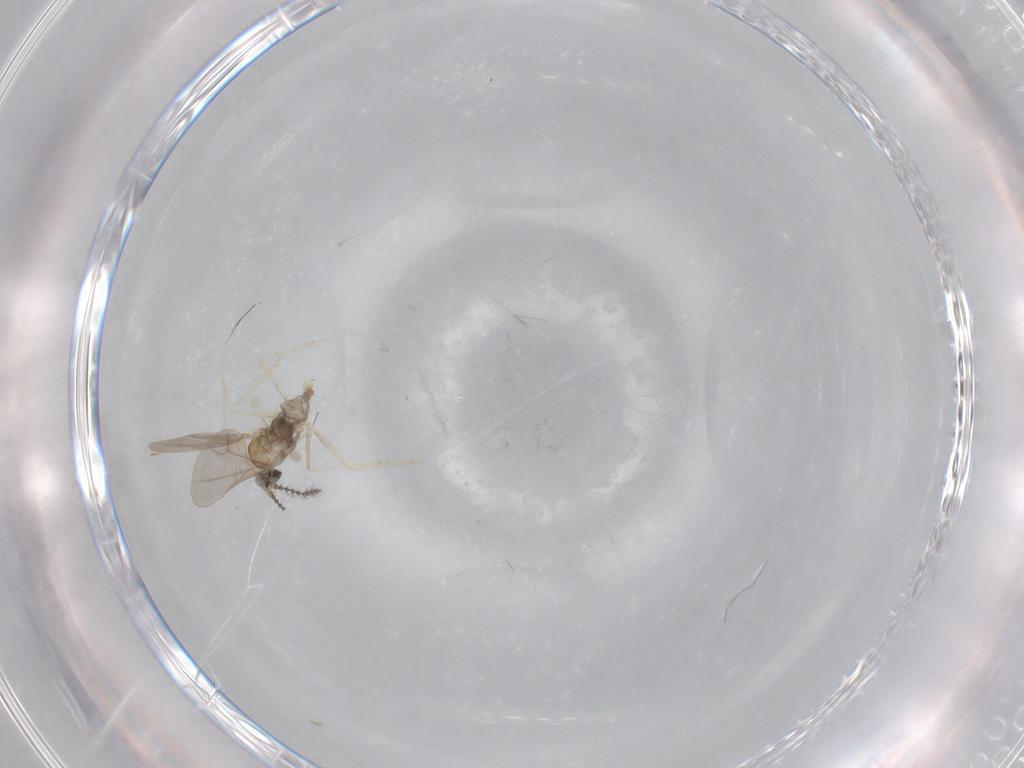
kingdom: Animalia
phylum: Arthropoda
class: Insecta
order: Diptera
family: Cecidomyiidae
